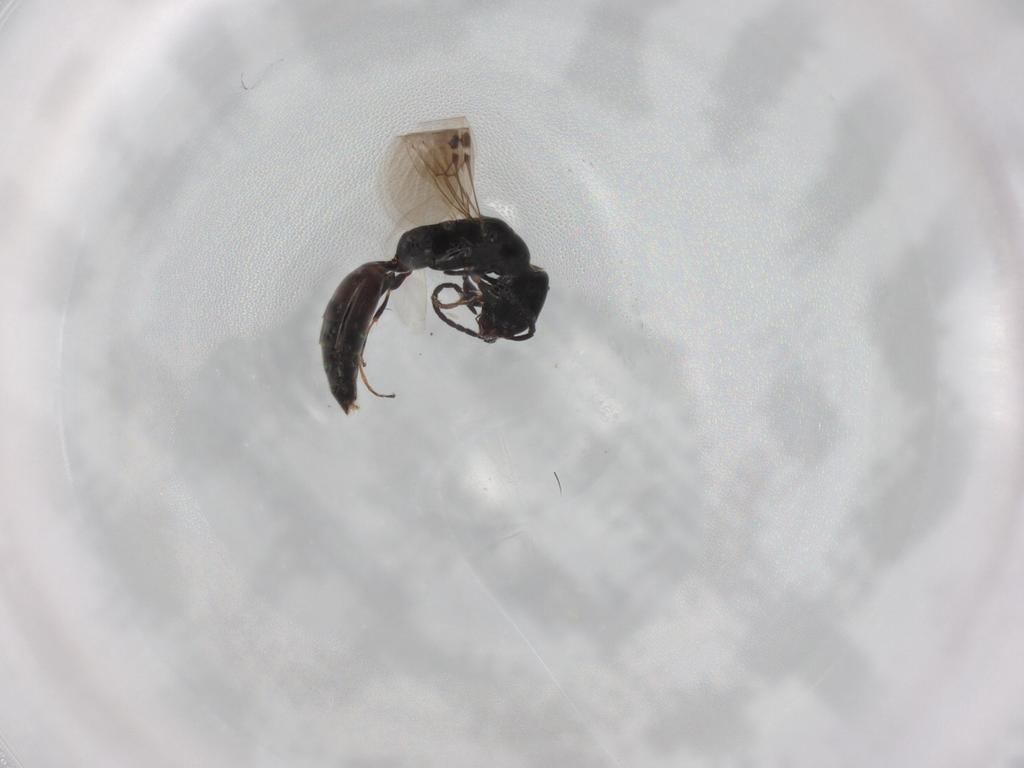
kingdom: Animalia
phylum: Arthropoda
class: Insecta
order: Hymenoptera
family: Bethylidae
